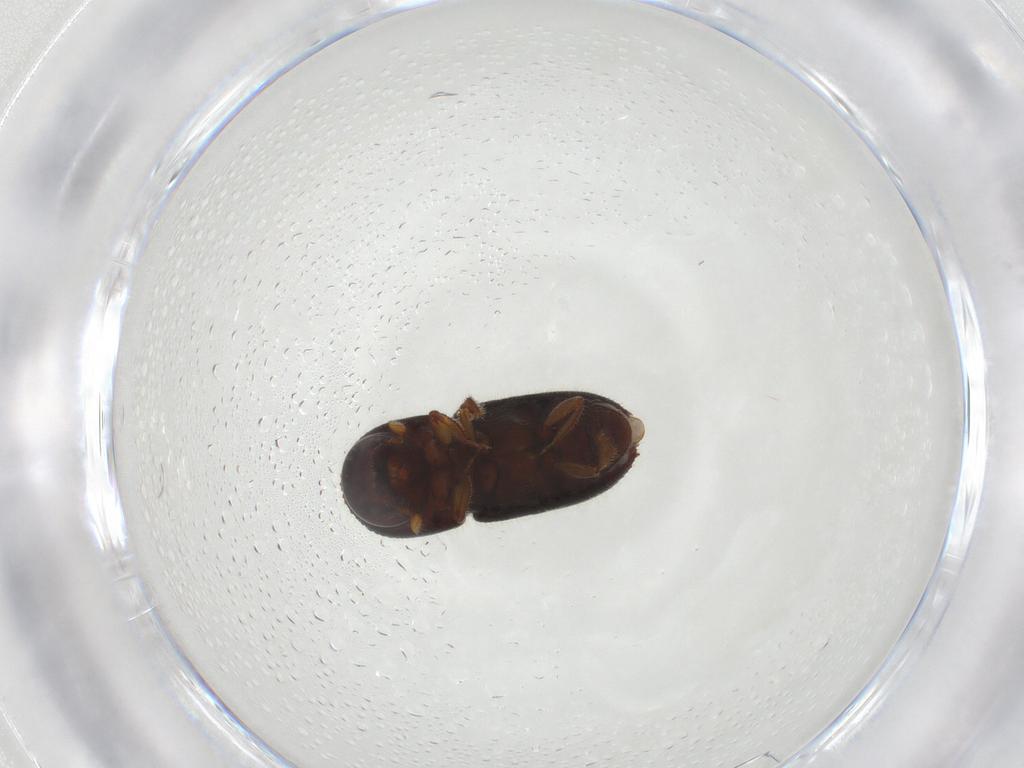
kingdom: Animalia
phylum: Arthropoda
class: Insecta
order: Coleoptera
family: Curculionidae
